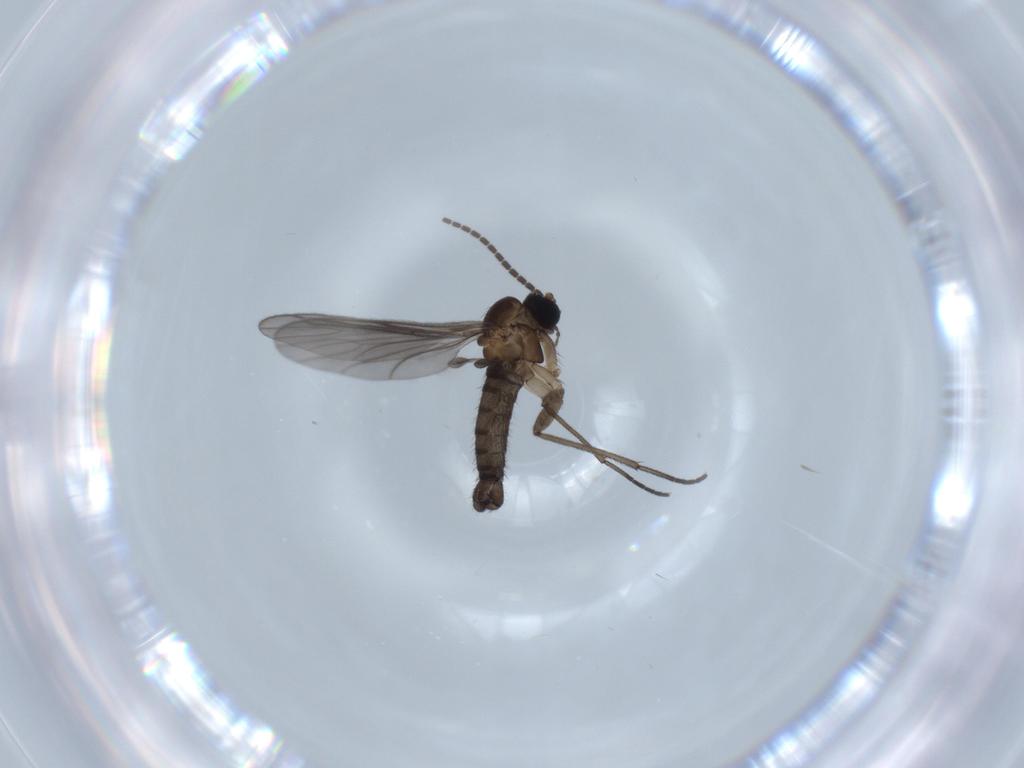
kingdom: Animalia
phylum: Arthropoda
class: Insecta
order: Diptera
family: Sciaridae
